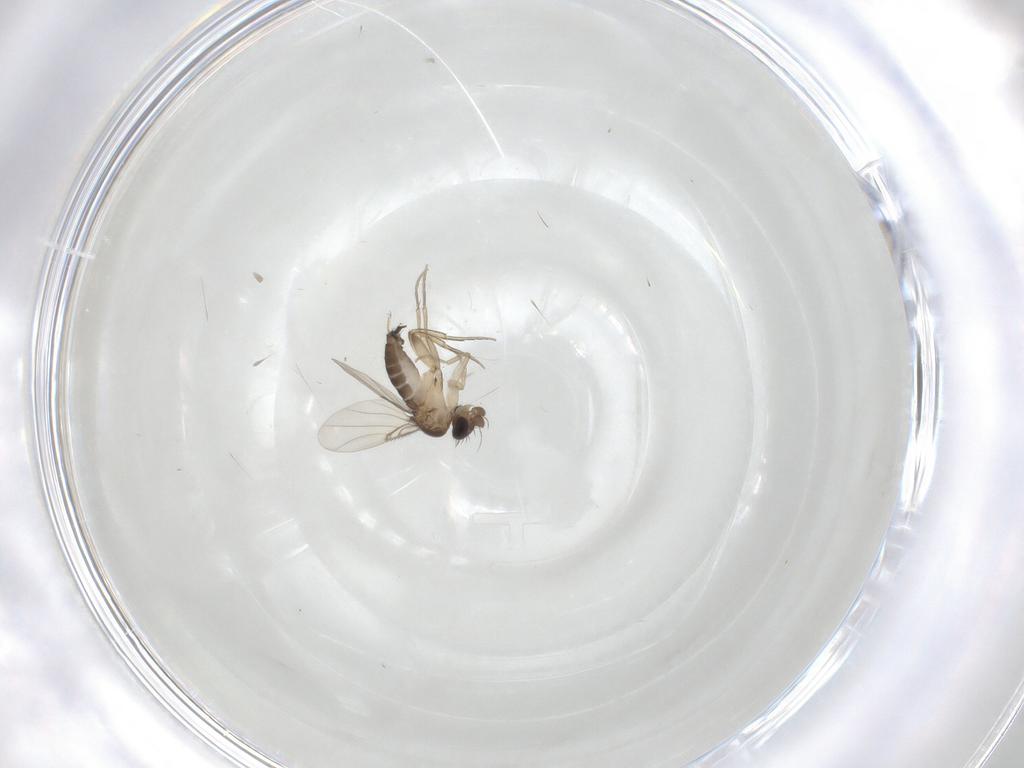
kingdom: Animalia
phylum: Arthropoda
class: Insecta
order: Diptera
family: Phoridae
